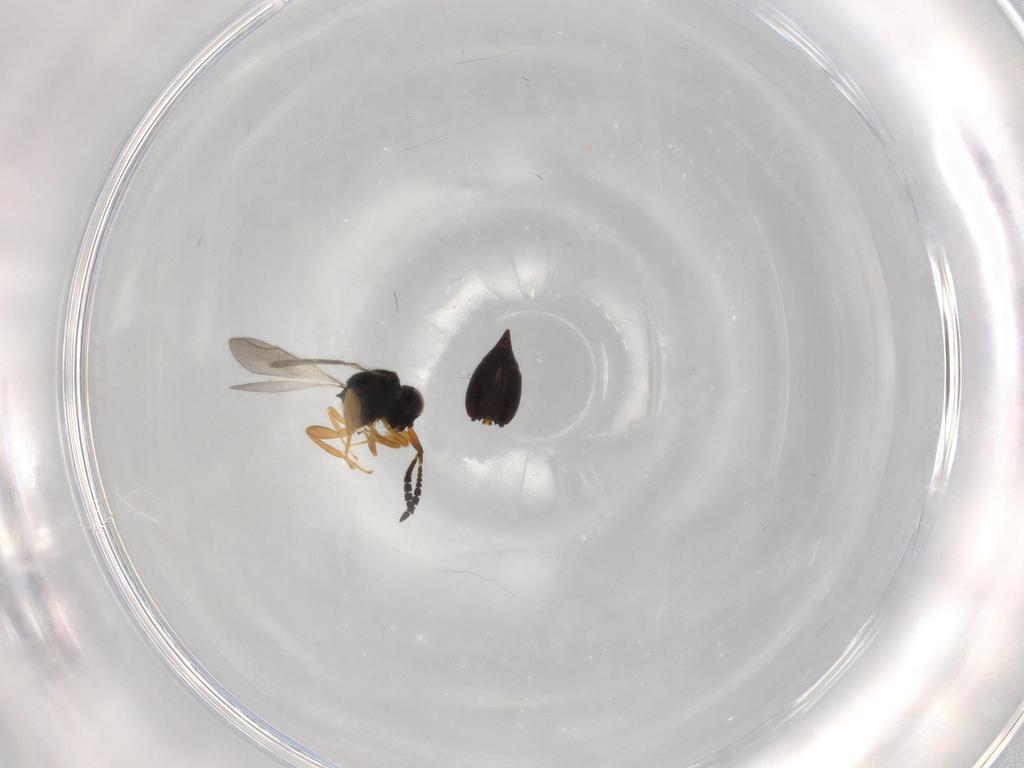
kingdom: Animalia
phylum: Arthropoda
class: Insecta
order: Hymenoptera
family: Ceraphronidae
